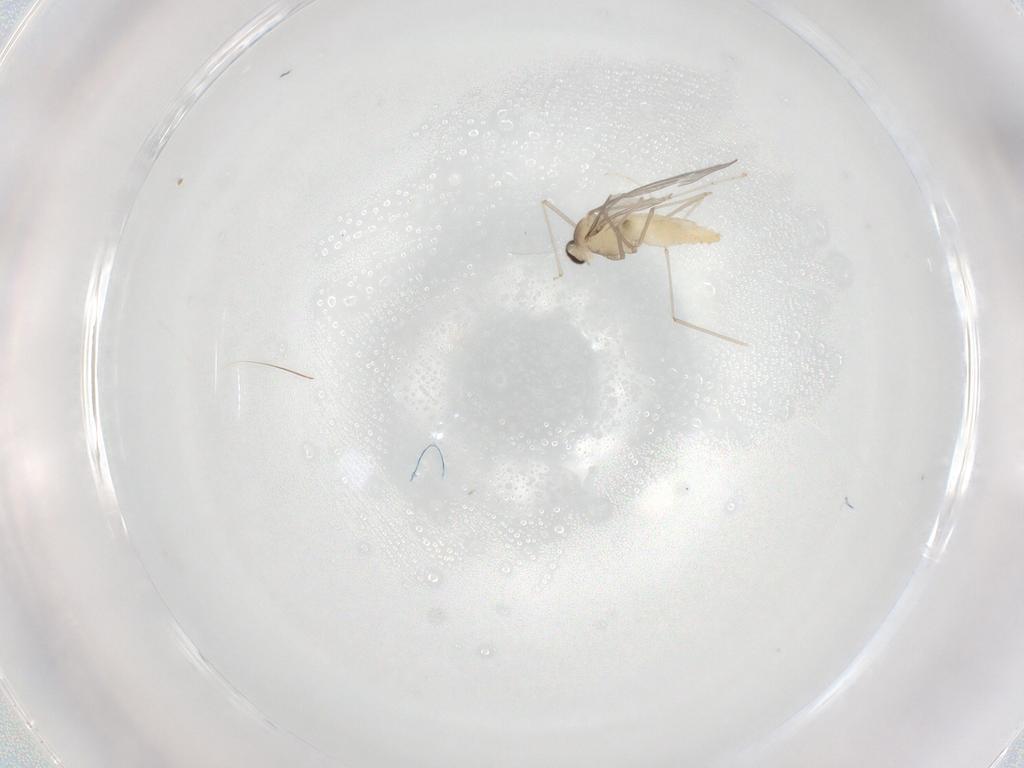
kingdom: Animalia
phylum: Arthropoda
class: Insecta
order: Diptera
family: Cecidomyiidae
